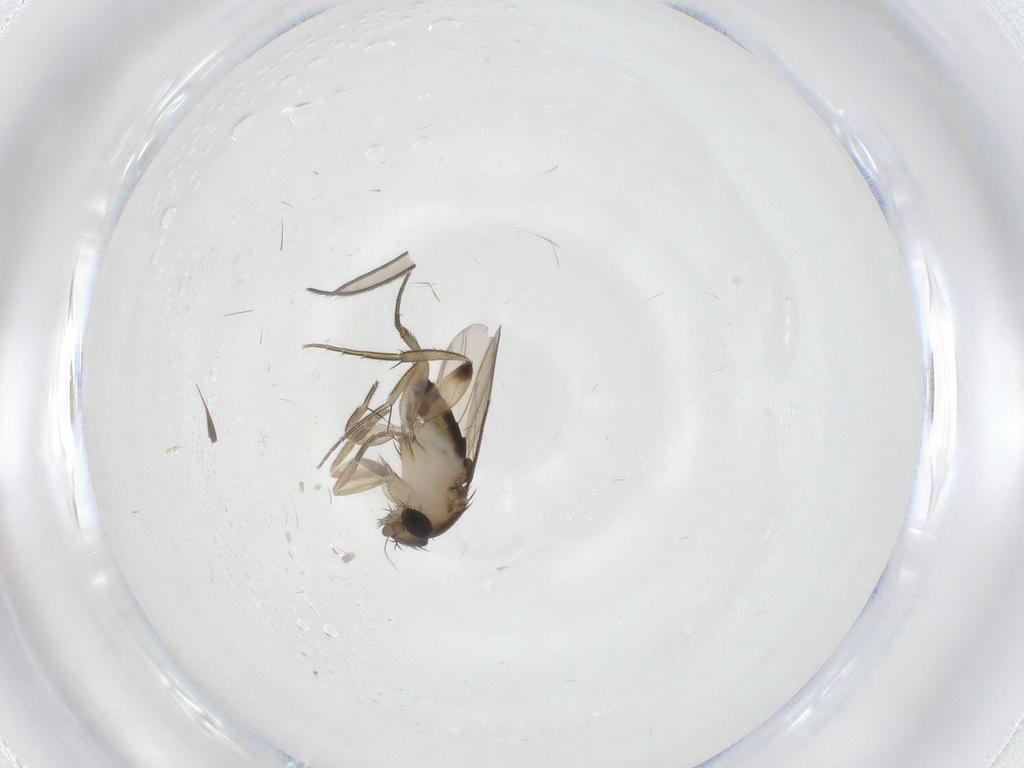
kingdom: Animalia
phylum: Arthropoda
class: Insecta
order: Diptera
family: Phoridae
